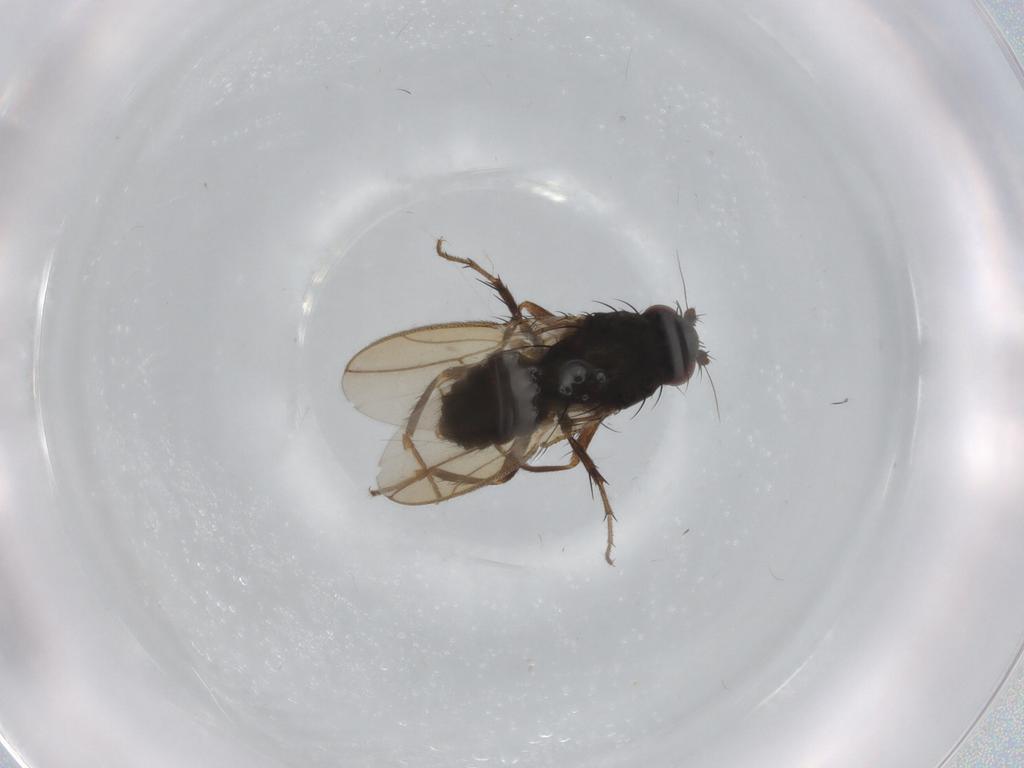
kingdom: Animalia
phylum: Arthropoda
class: Insecta
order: Diptera
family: Sphaeroceridae
